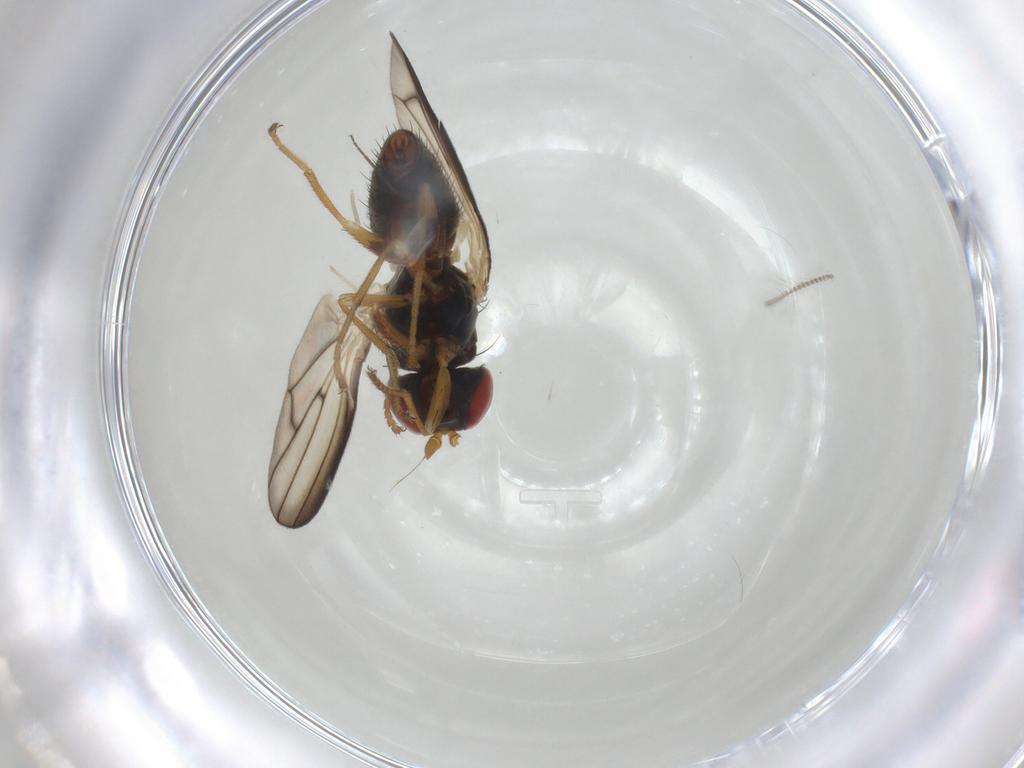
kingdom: Animalia
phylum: Arthropoda
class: Insecta
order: Diptera
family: Chamaemyiidae
